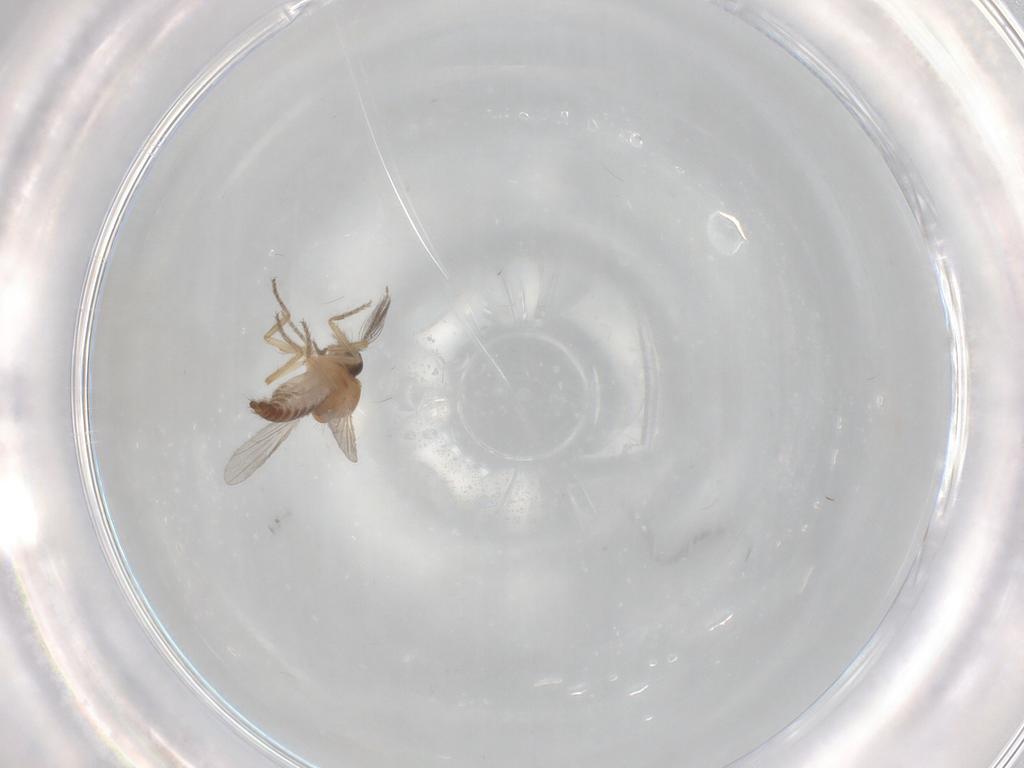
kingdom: Animalia
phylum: Arthropoda
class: Insecta
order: Diptera
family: Ceratopogonidae
